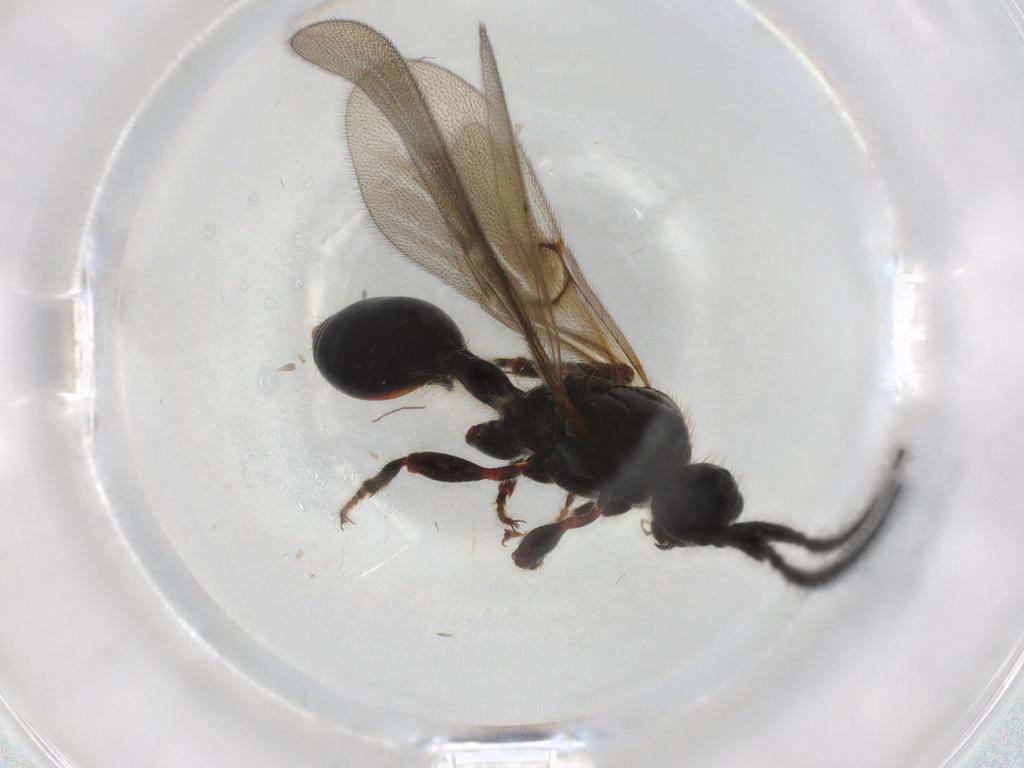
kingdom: Animalia
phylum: Arthropoda
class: Insecta
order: Hymenoptera
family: Diapriidae
